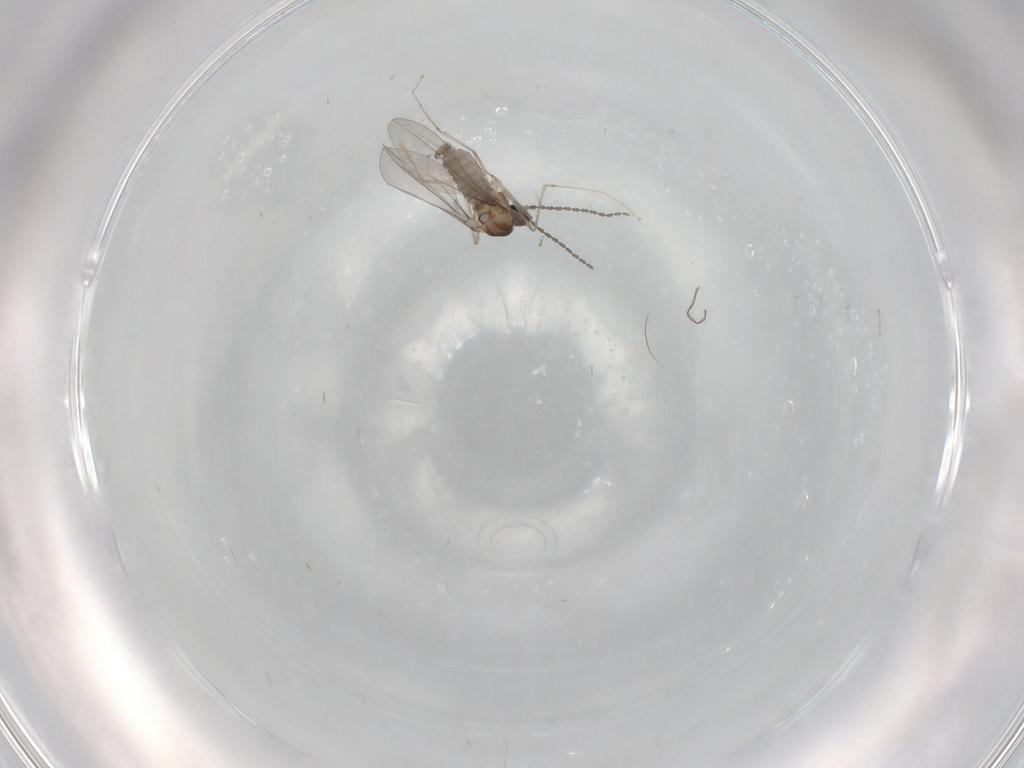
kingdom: Animalia
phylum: Arthropoda
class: Insecta
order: Diptera
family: Cecidomyiidae
